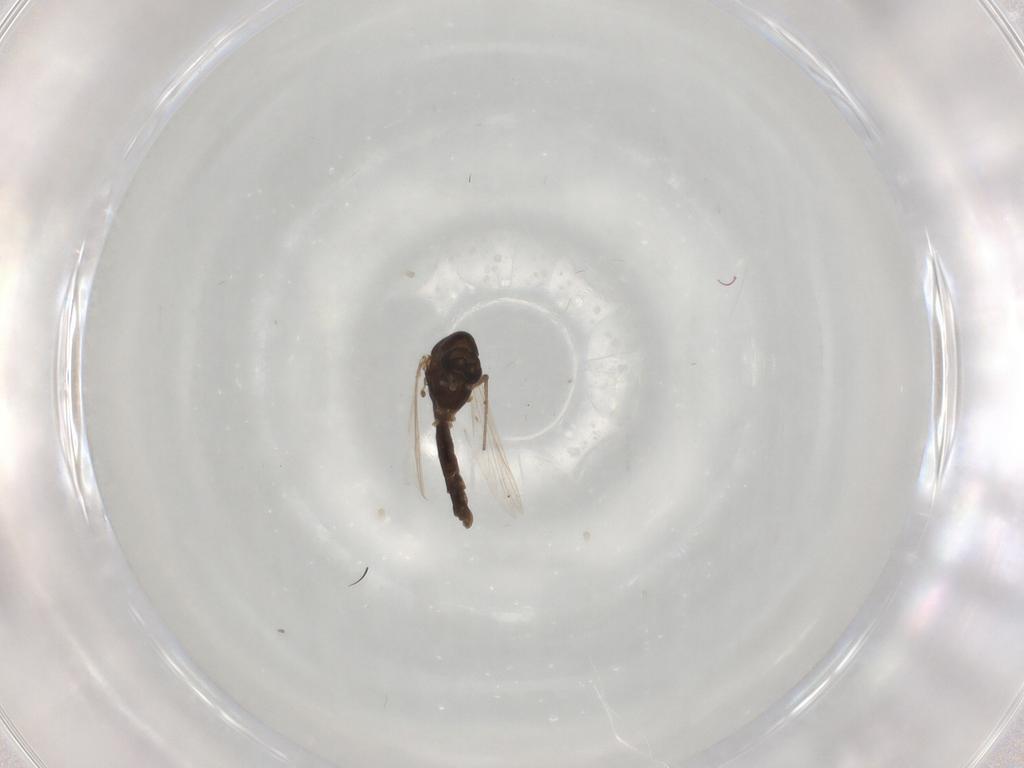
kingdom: Animalia
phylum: Arthropoda
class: Insecta
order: Diptera
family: Chironomidae
